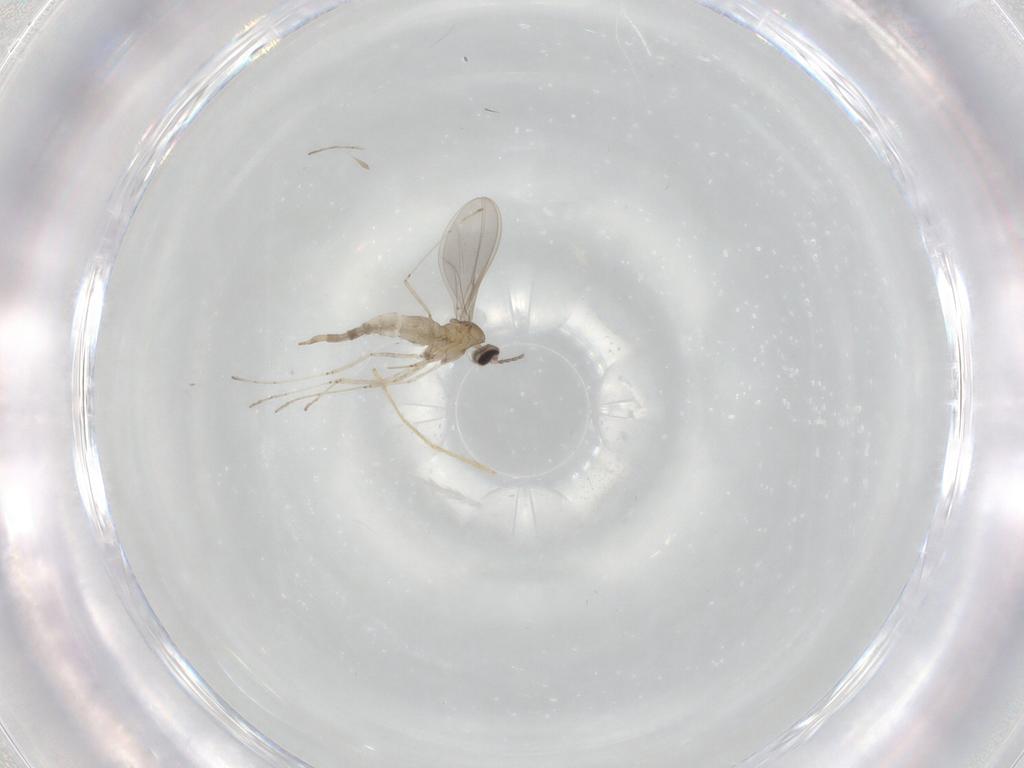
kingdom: Animalia
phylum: Arthropoda
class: Insecta
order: Diptera
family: Cecidomyiidae
